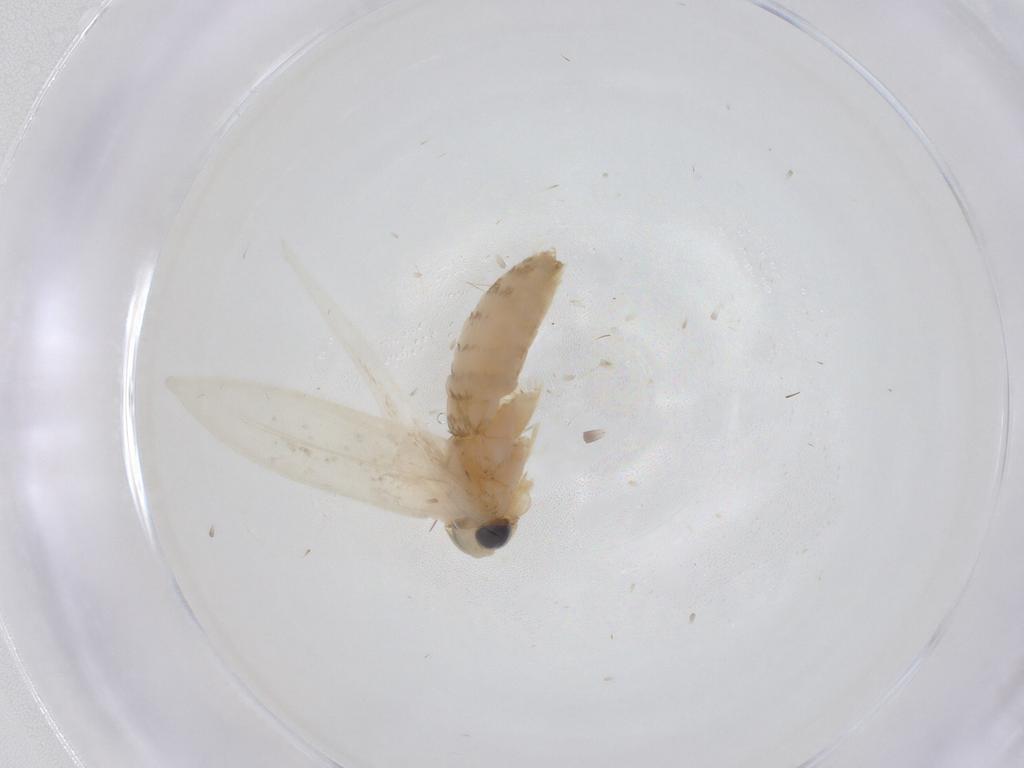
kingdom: Animalia
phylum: Arthropoda
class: Insecta
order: Lepidoptera
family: Opostegidae
